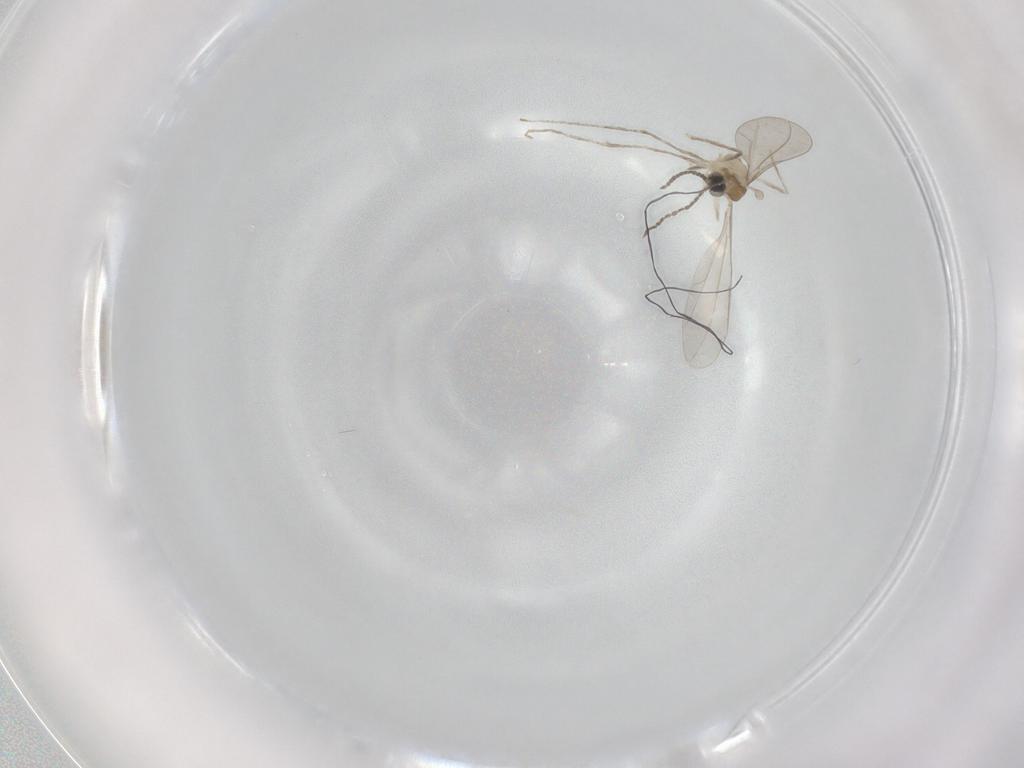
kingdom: Animalia
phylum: Arthropoda
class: Insecta
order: Diptera
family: Cecidomyiidae
